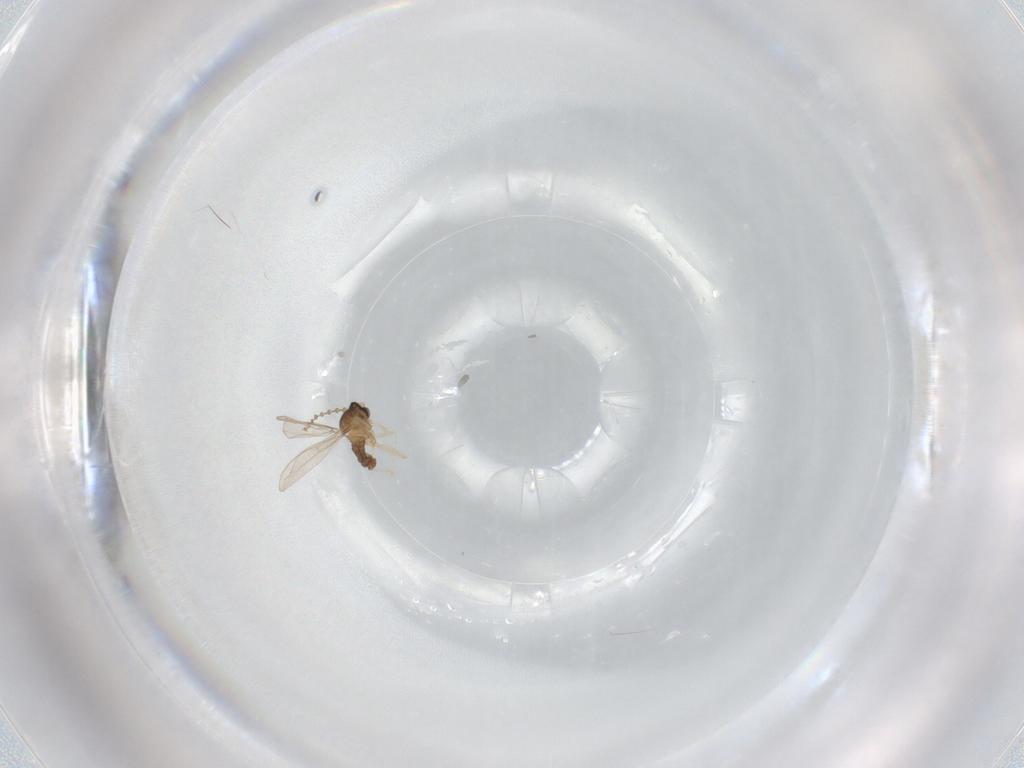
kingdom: Animalia
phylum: Arthropoda
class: Insecta
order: Diptera
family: Cecidomyiidae
